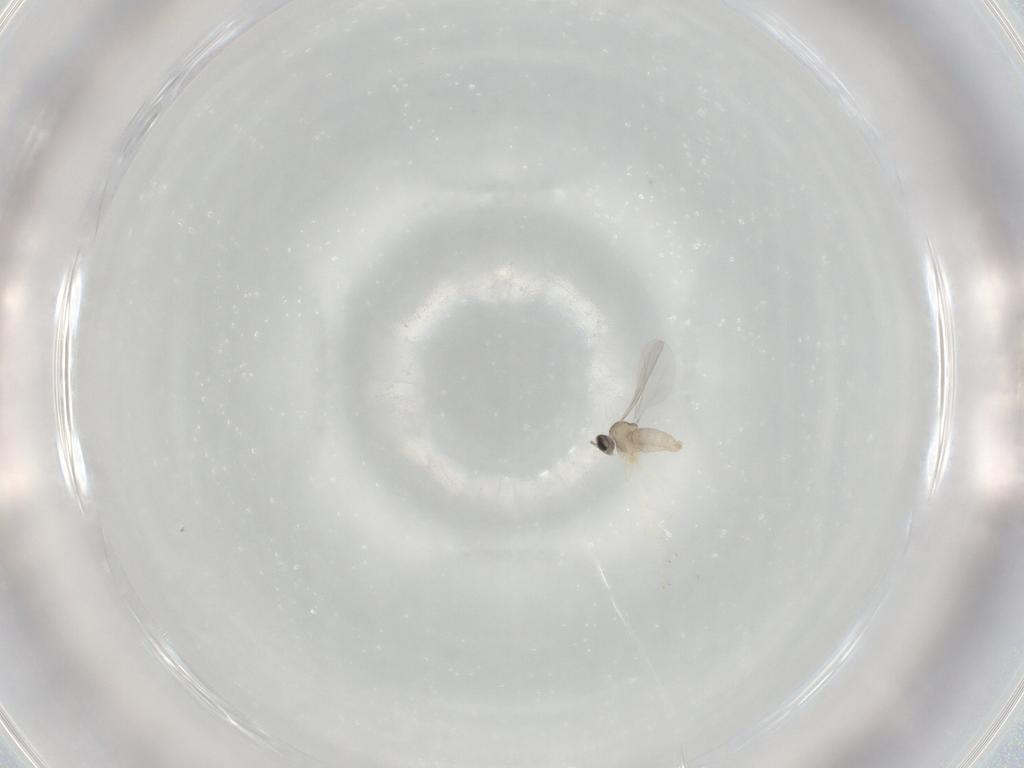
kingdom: Animalia
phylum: Arthropoda
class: Insecta
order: Diptera
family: Cecidomyiidae
